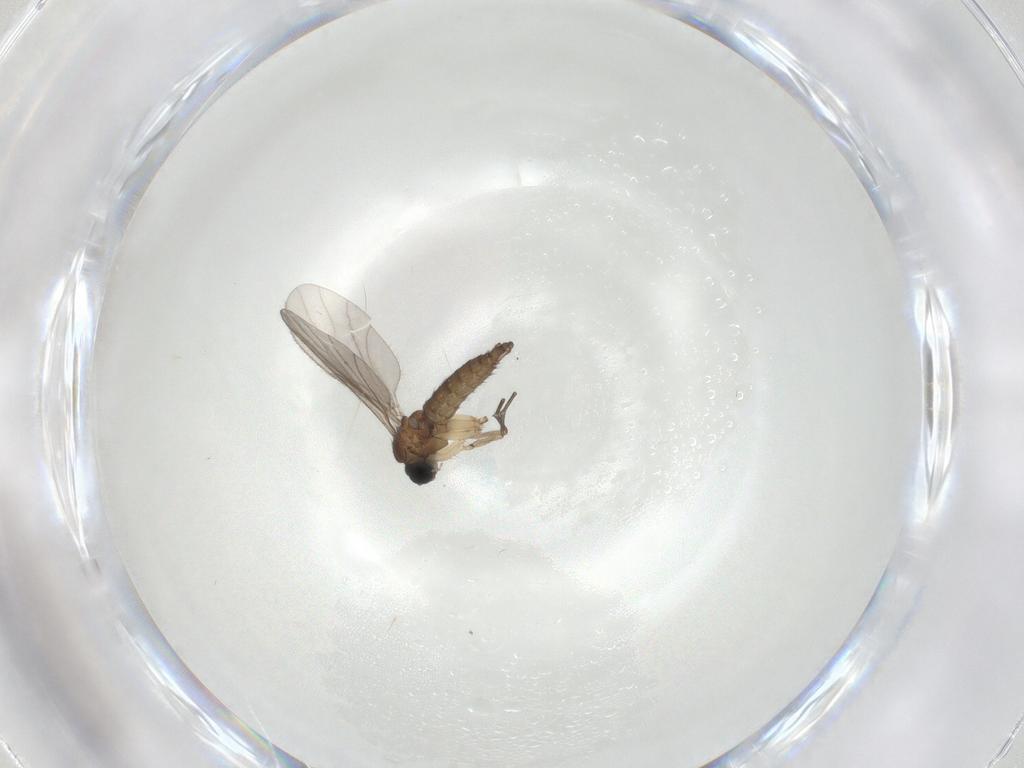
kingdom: Animalia
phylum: Arthropoda
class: Insecta
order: Diptera
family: Sciaridae
